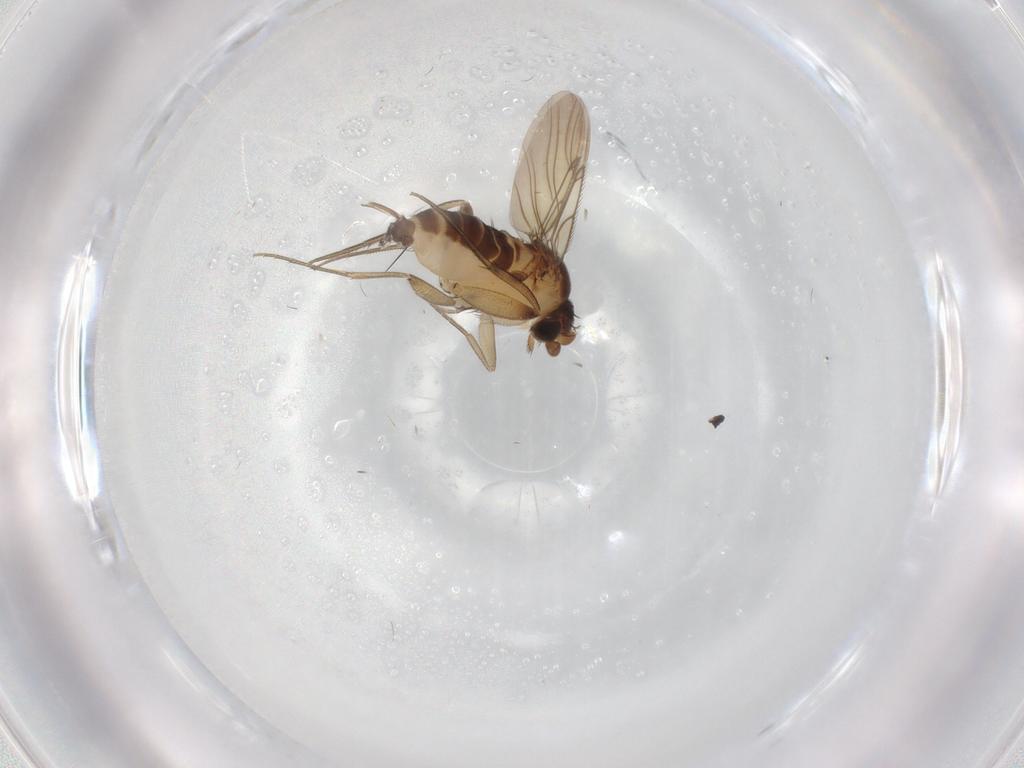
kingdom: Animalia
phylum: Arthropoda
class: Insecta
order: Diptera
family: Phoridae
